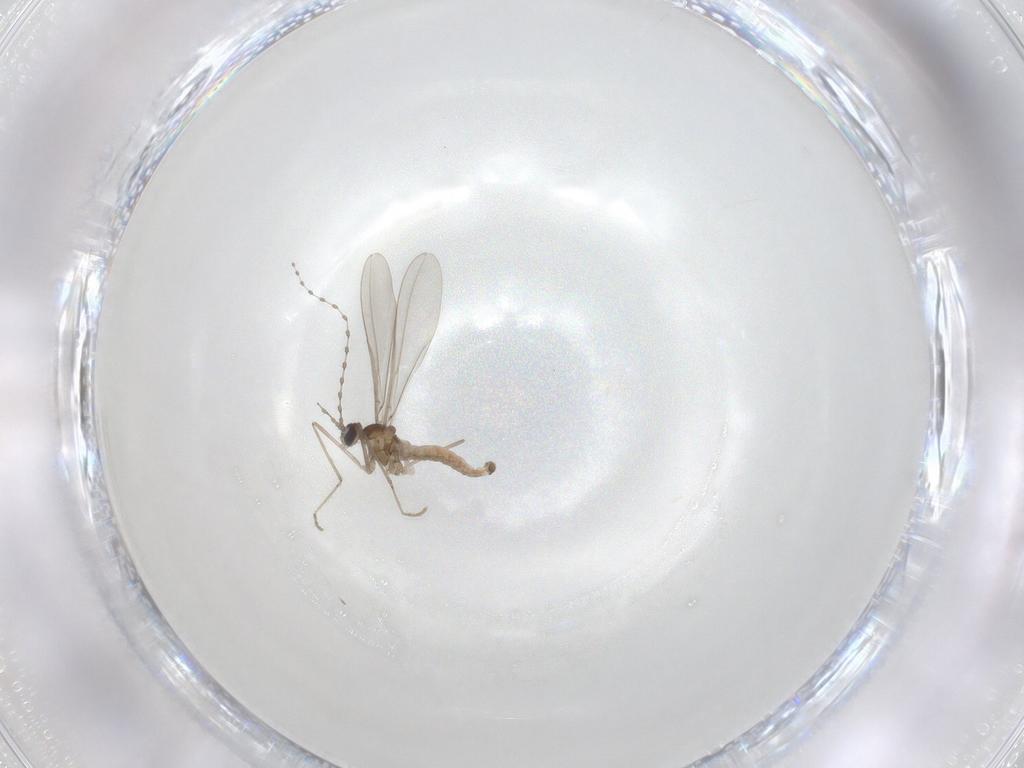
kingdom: Animalia
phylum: Arthropoda
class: Insecta
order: Diptera
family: Cecidomyiidae
